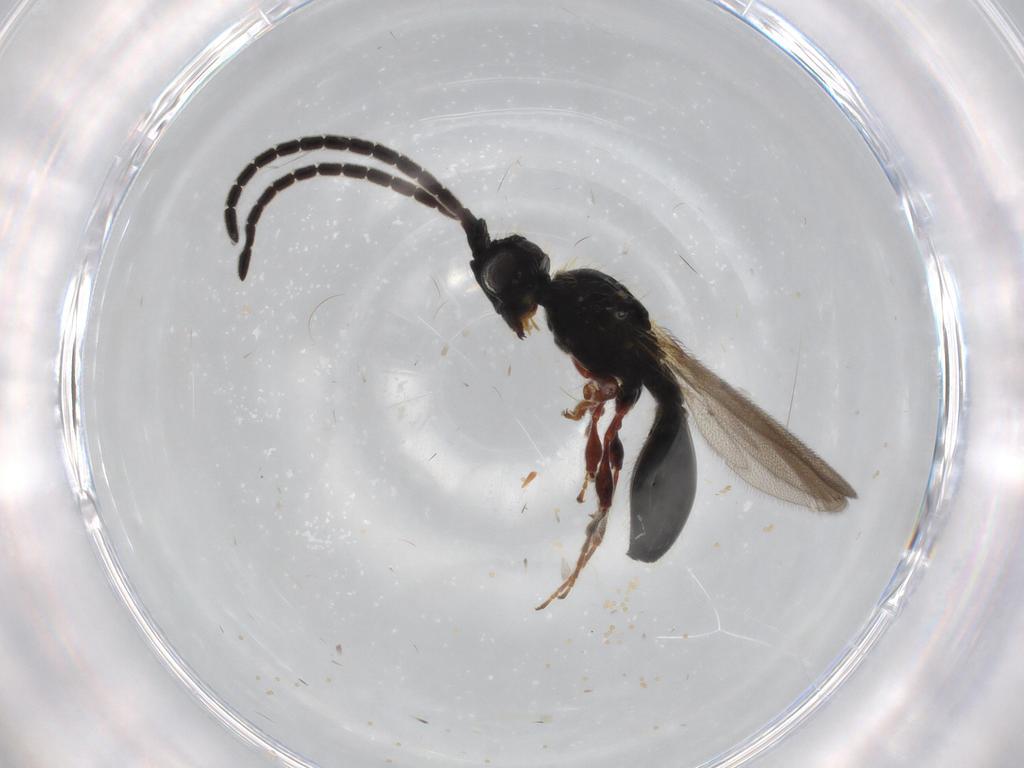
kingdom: Animalia
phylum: Arthropoda
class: Insecta
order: Hymenoptera
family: Diapriidae
